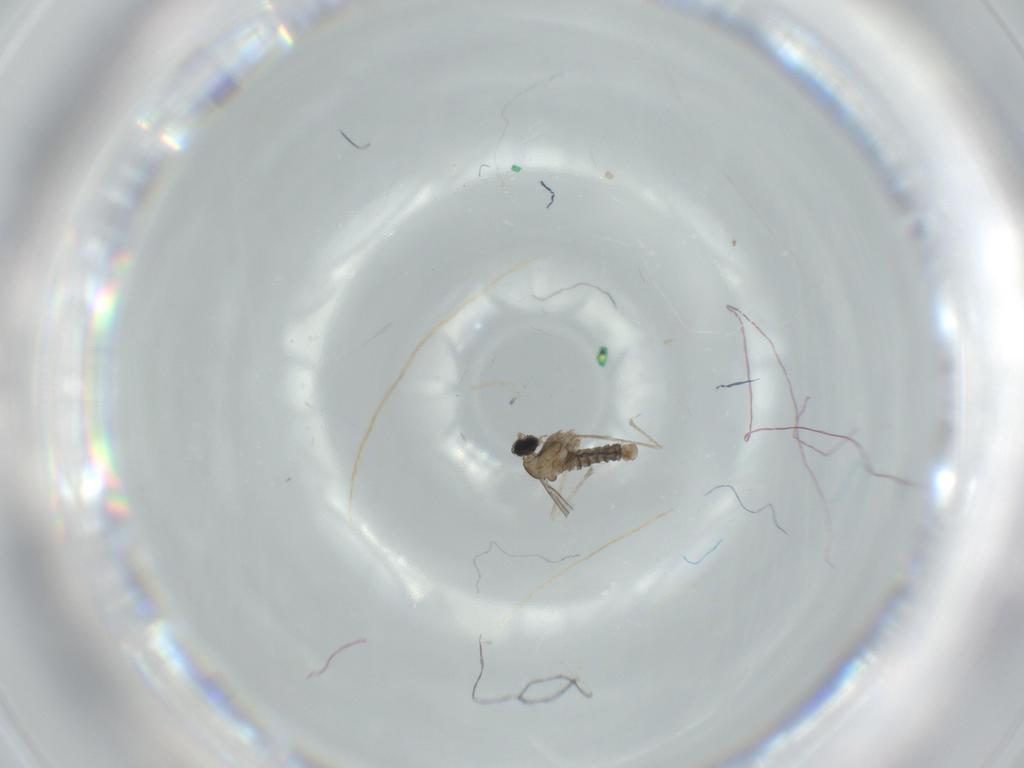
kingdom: Animalia
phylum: Arthropoda
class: Insecta
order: Diptera
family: Cecidomyiidae
